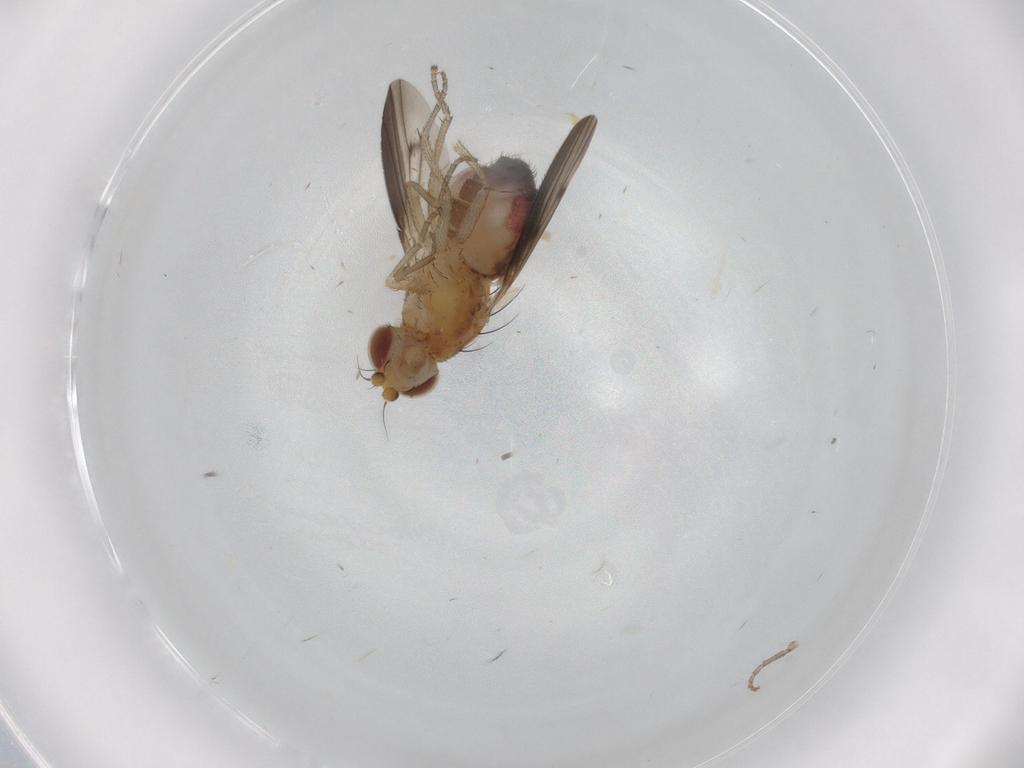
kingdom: Animalia
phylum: Arthropoda
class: Insecta
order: Diptera
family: Heleomyzidae
